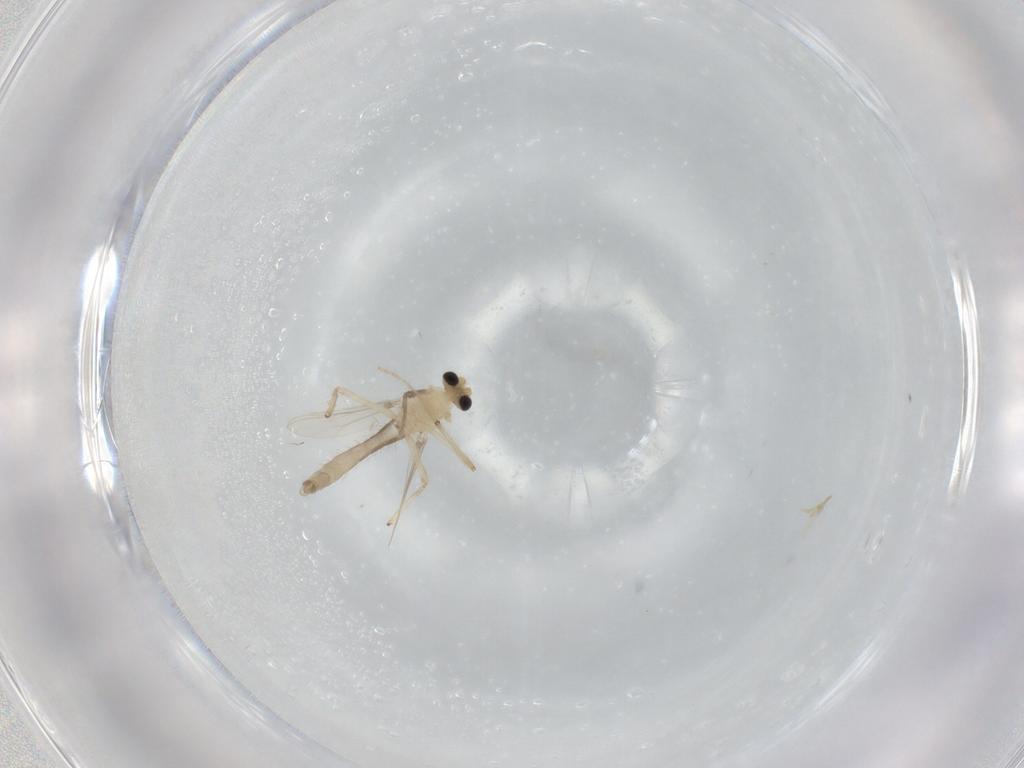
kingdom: Animalia
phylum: Arthropoda
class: Insecta
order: Diptera
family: Chironomidae
